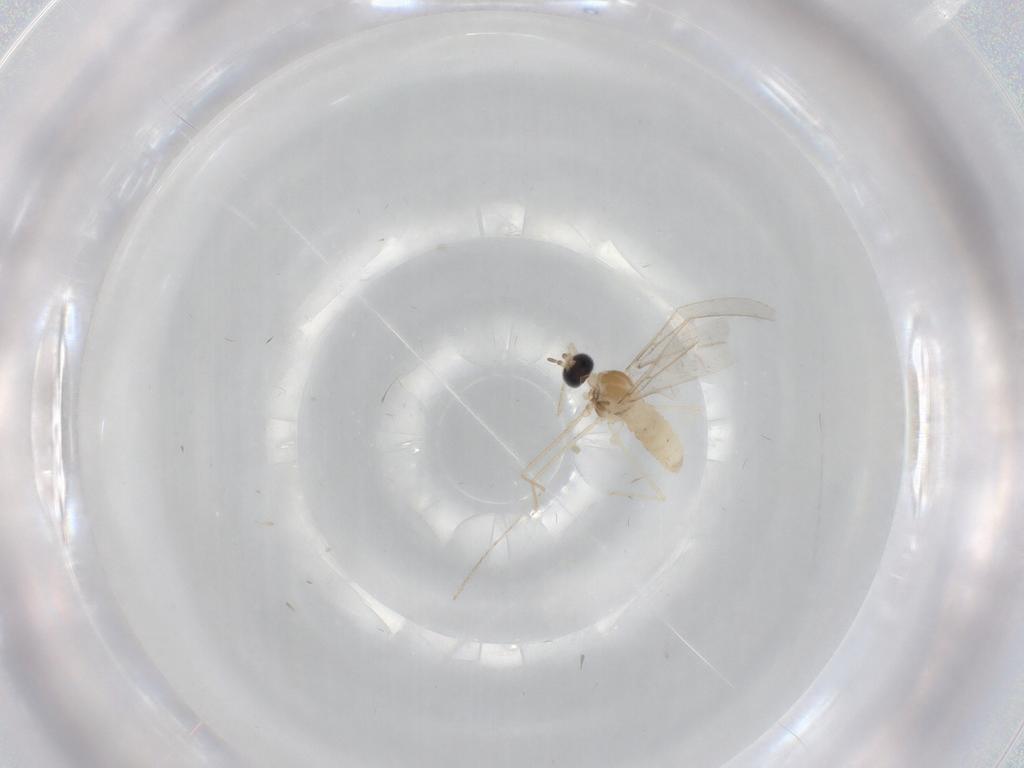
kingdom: Animalia
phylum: Arthropoda
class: Insecta
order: Diptera
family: Cecidomyiidae
